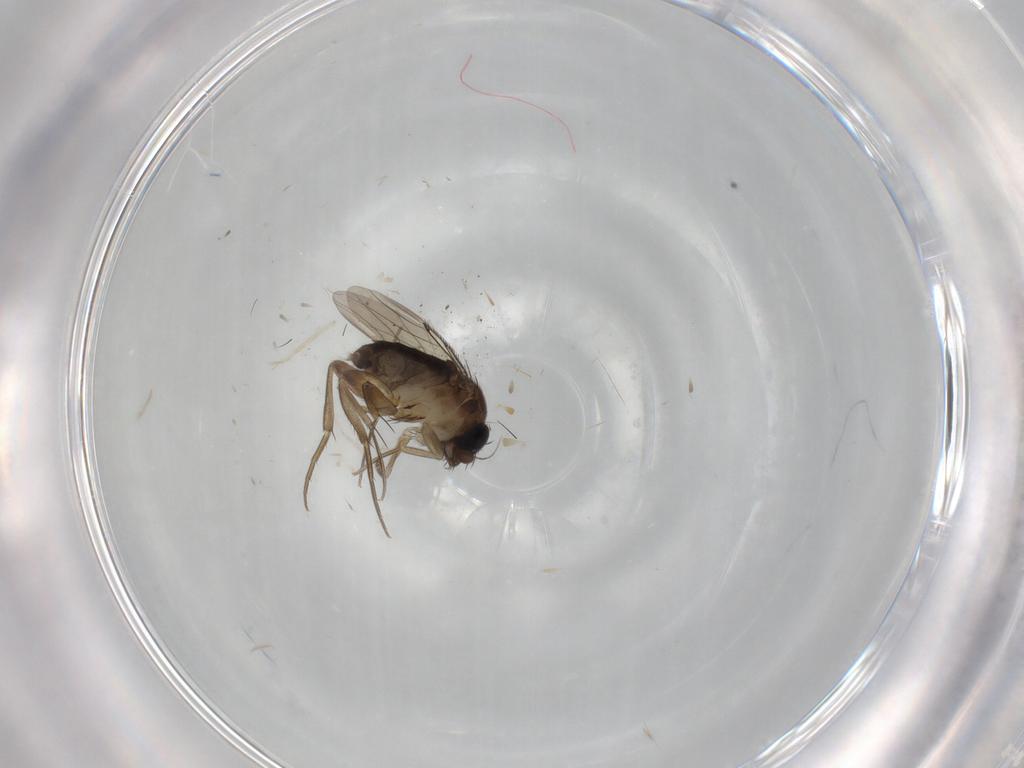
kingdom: Animalia
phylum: Arthropoda
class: Insecta
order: Diptera
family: Phoridae
